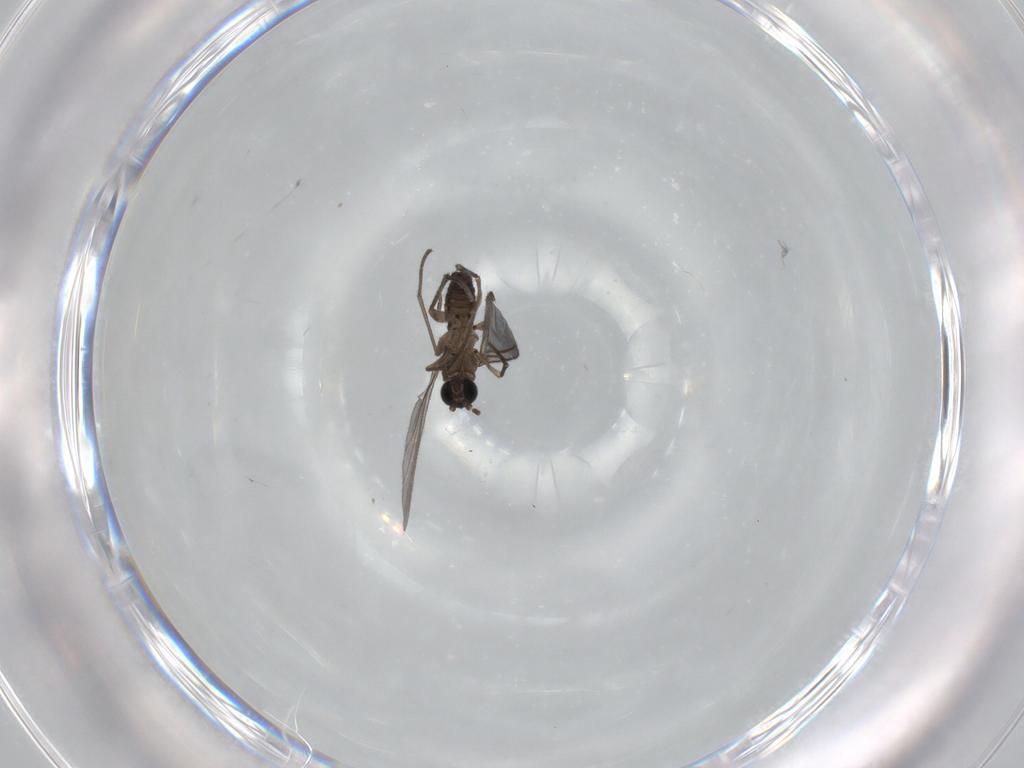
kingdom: Animalia
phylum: Arthropoda
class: Insecta
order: Diptera
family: Sciaridae
